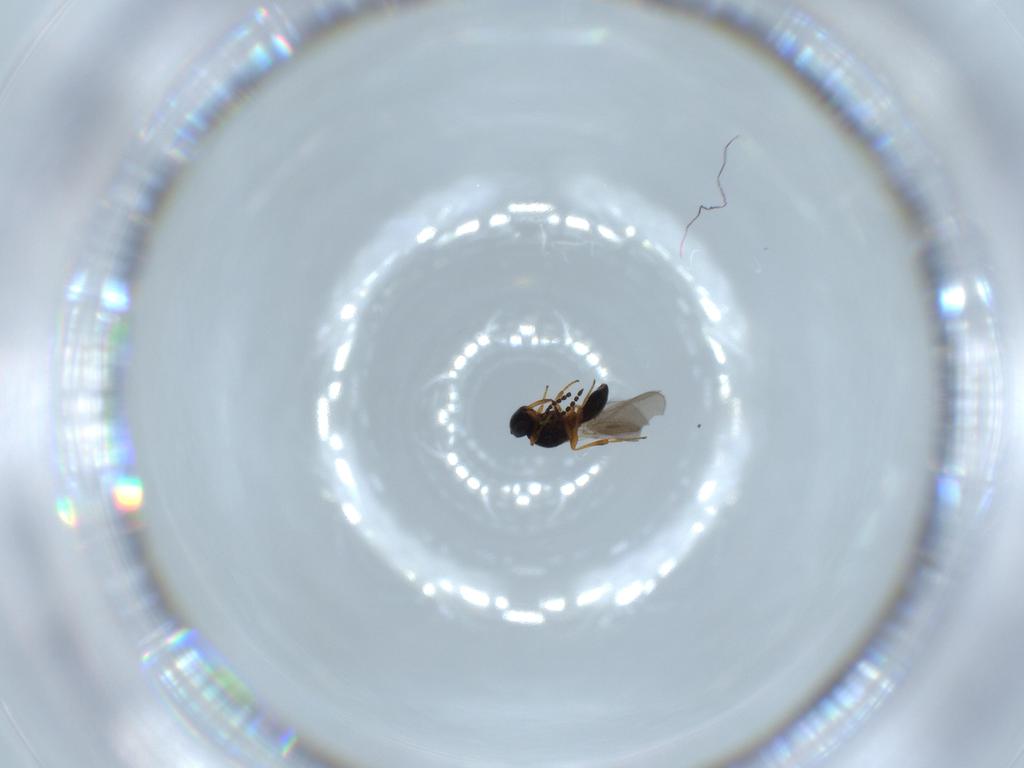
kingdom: Animalia
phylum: Arthropoda
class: Insecta
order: Hymenoptera
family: Platygastridae
